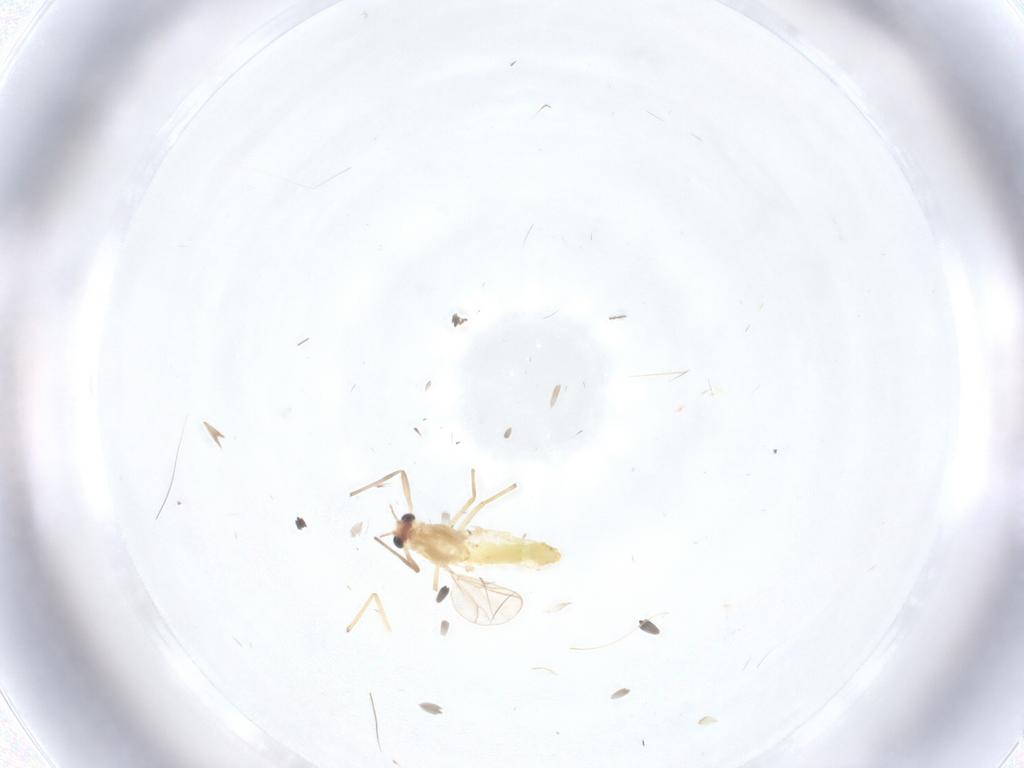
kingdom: Animalia
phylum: Arthropoda
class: Insecta
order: Diptera
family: Chironomidae
